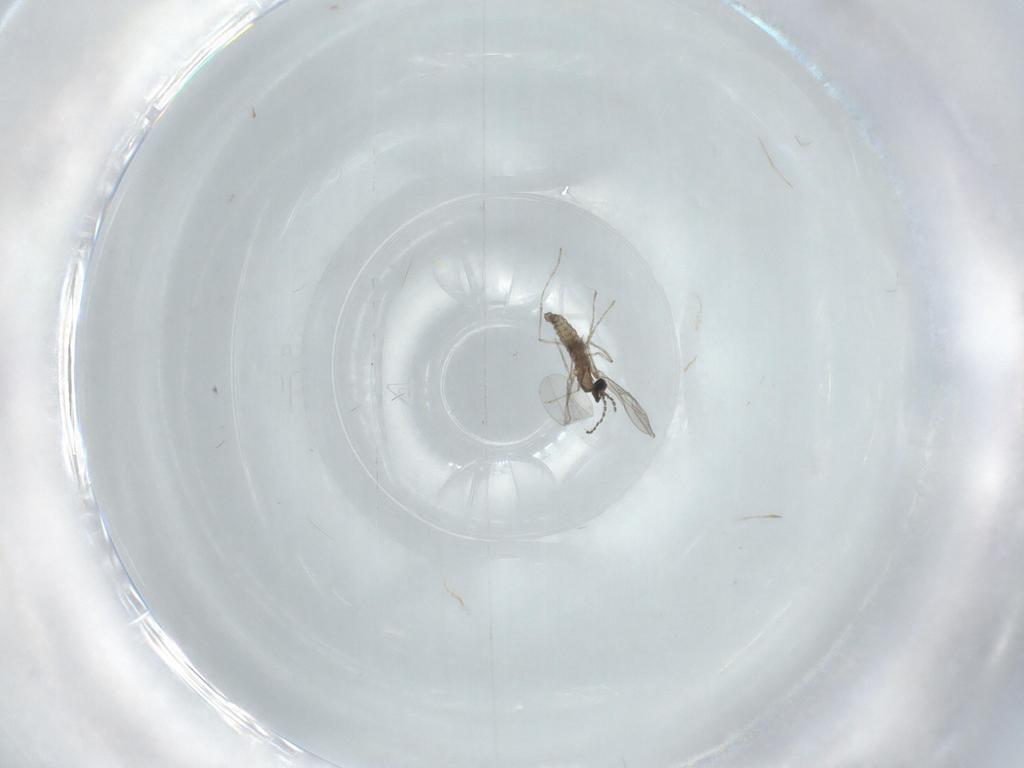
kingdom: Animalia
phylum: Arthropoda
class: Insecta
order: Diptera
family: Cecidomyiidae
